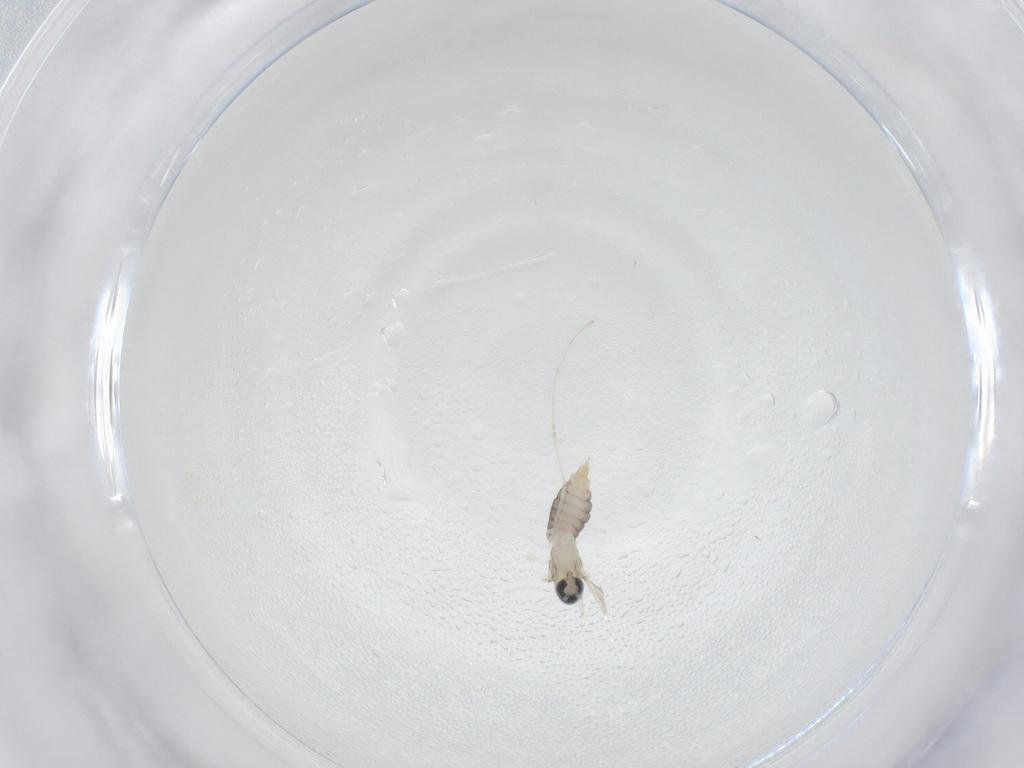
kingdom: Animalia
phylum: Arthropoda
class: Insecta
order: Diptera
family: Cecidomyiidae
